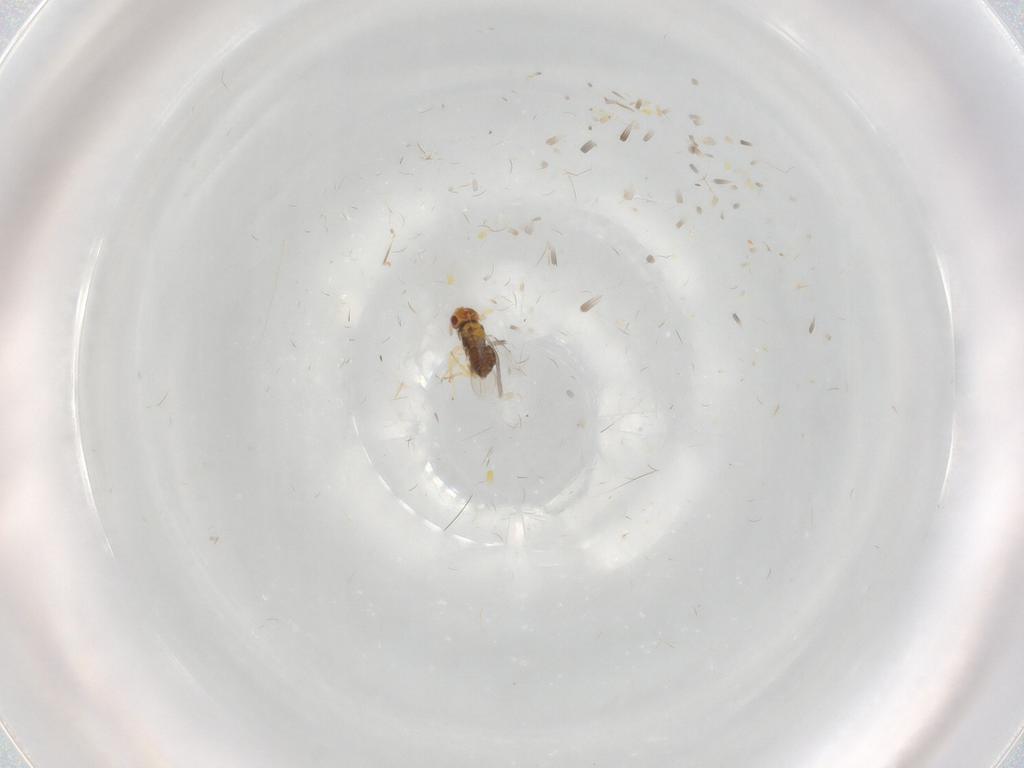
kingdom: Animalia
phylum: Arthropoda
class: Insecta
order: Hymenoptera
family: Aphelinidae
